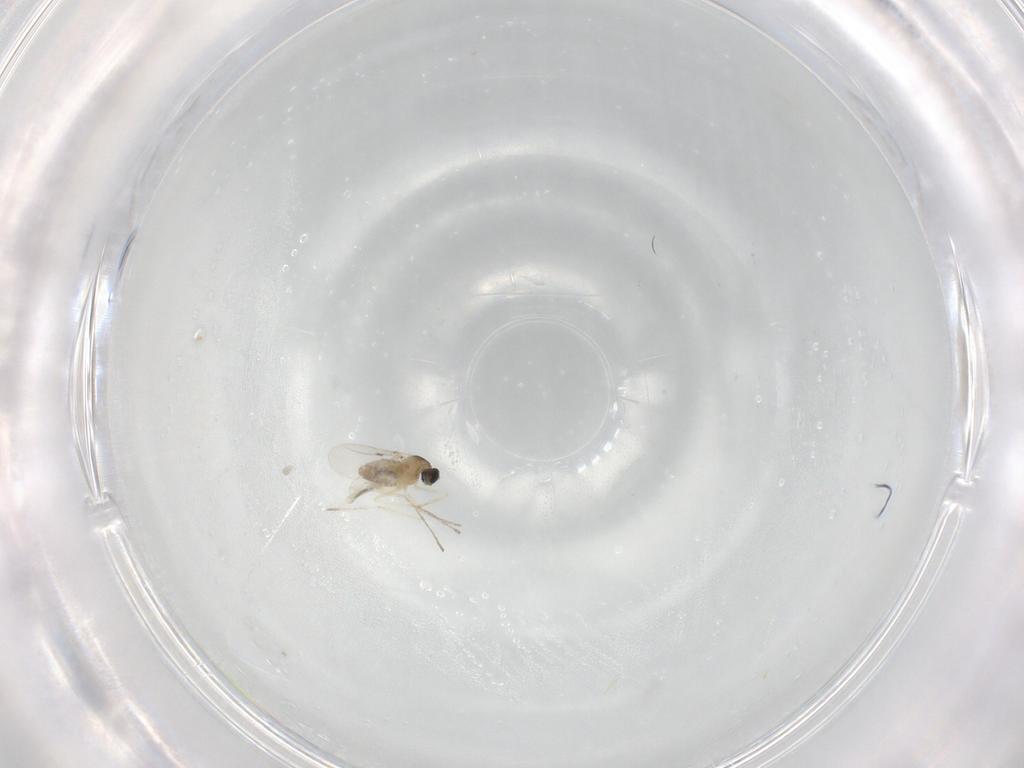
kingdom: Animalia
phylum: Arthropoda
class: Insecta
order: Diptera
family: Cecidomyiidae
